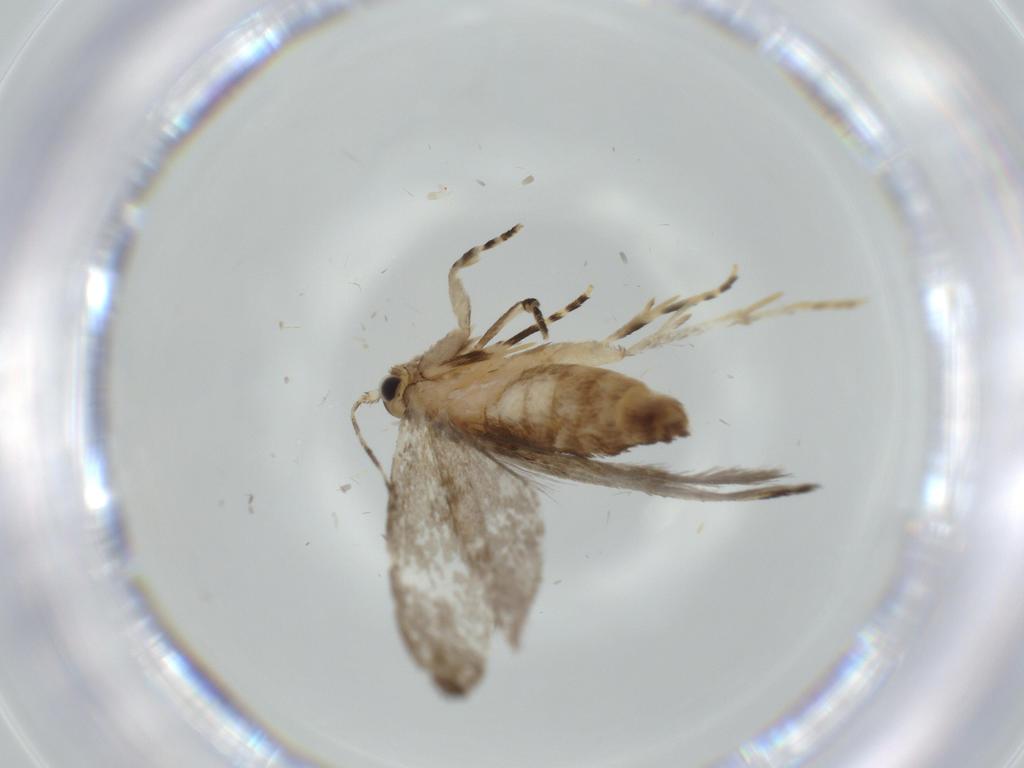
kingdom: Animalia
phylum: Arthropoda
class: Insecta
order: Lepidoptera
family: Tineidae
